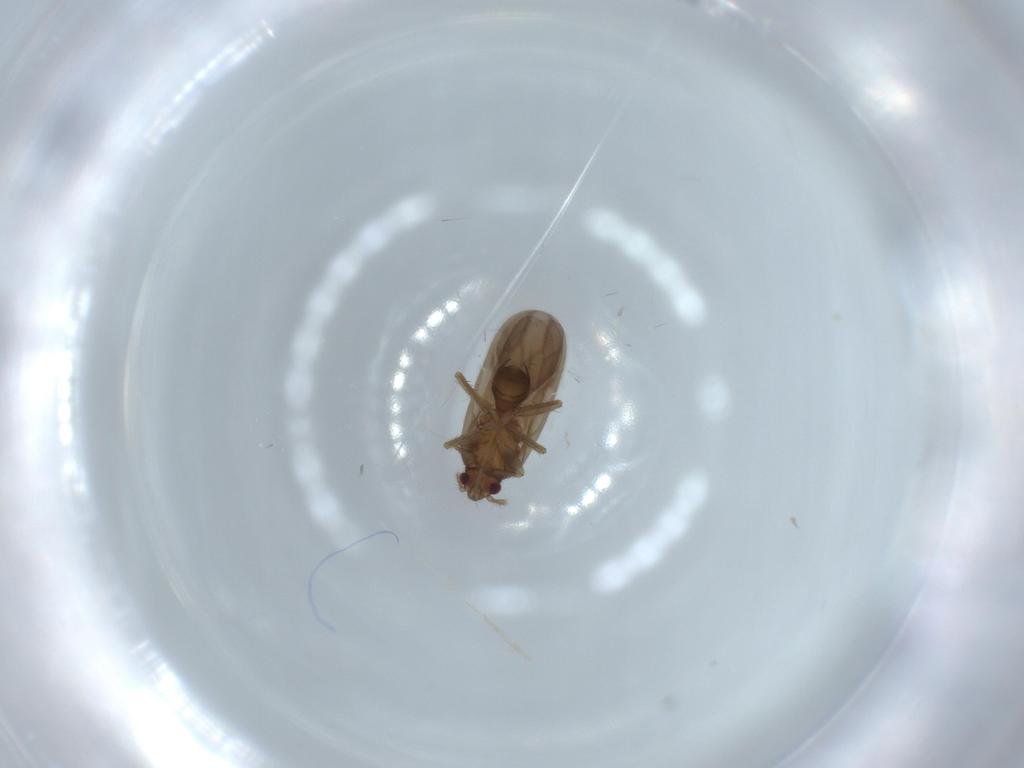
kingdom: Animalia
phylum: Arthropoda
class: Insecta
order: Hemiptera
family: Ceratocombidae
